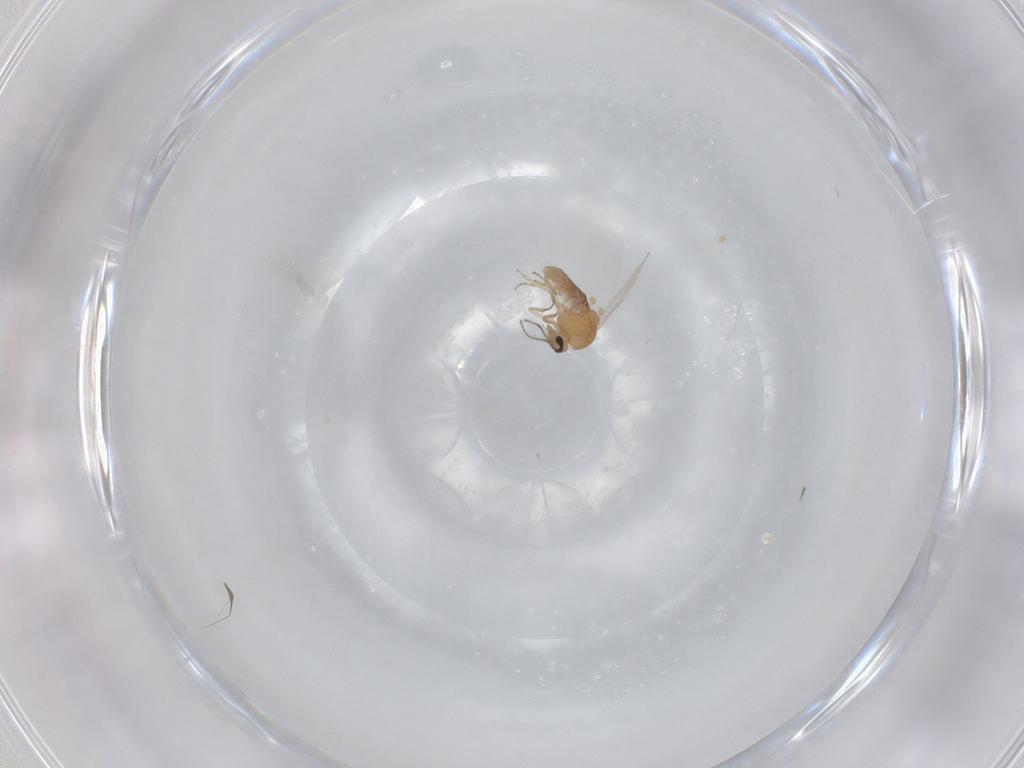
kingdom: Animalia
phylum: Arthropoda
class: Insecta
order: Diptera
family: Ceratopogonidae
